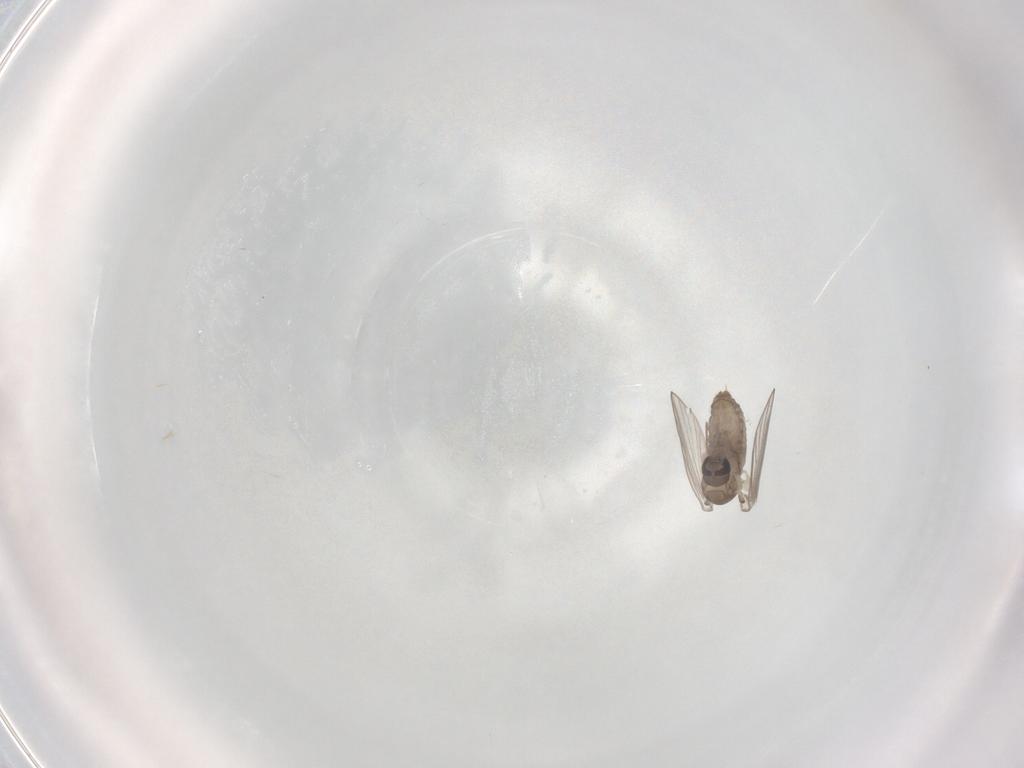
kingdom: Animalia
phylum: Arthropoda
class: Insecta
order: Diptera
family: Psychodidae
